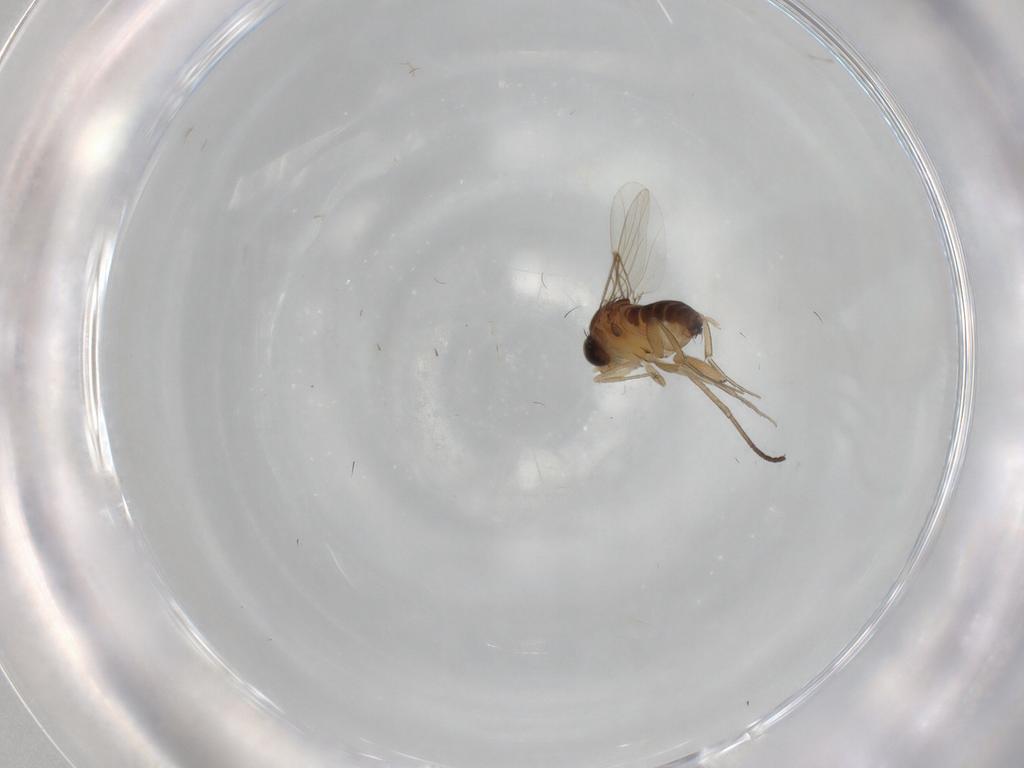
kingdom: Animalia
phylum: Arthropoda
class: Insecta
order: Diptera
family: Phoridae
